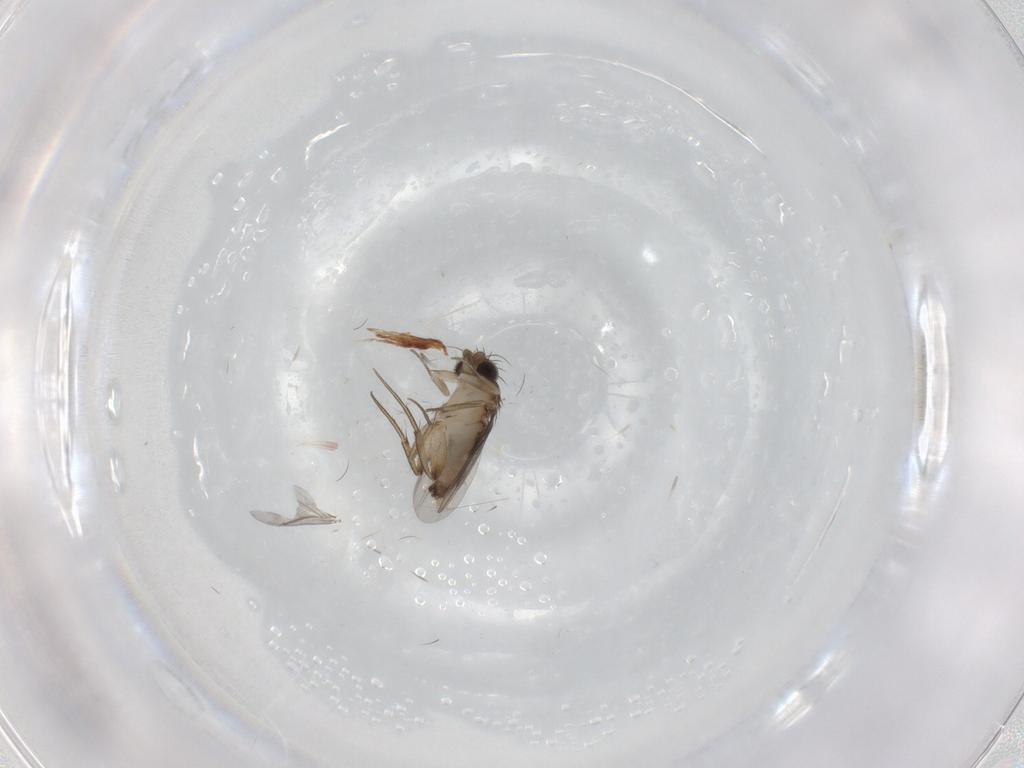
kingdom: Animalia
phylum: Arthropoda
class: Insecta
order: Diptera
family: Phoridae
